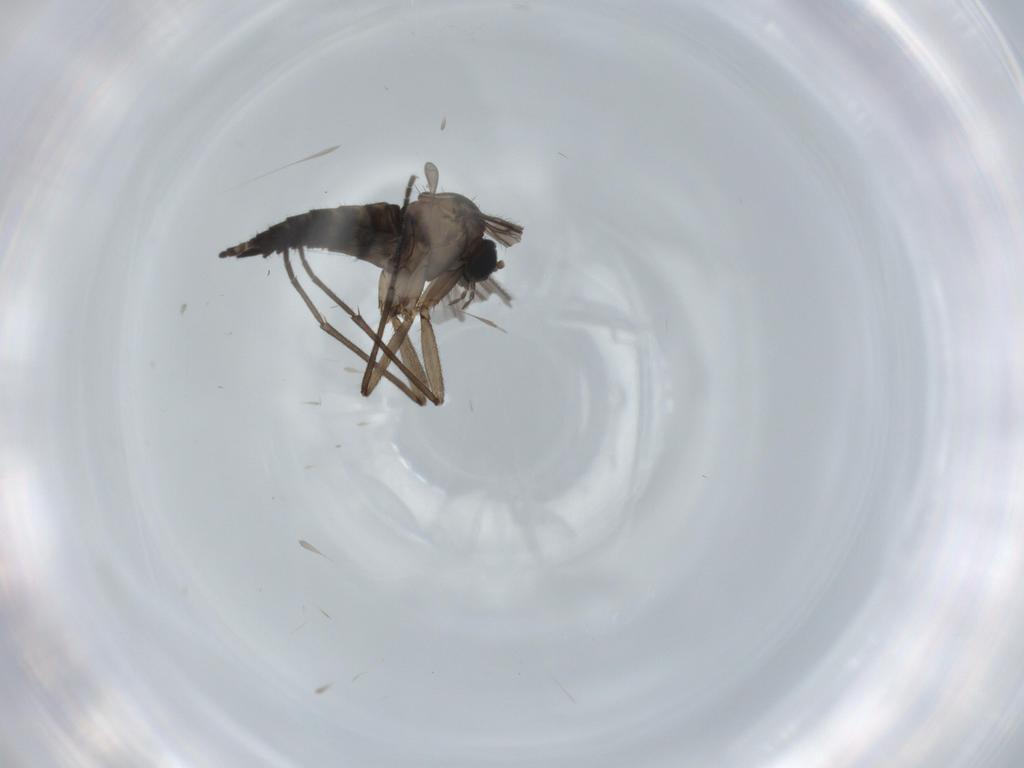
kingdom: Animalia
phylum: Arthropoda
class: Insecta
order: Diptera
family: Sciaridae
